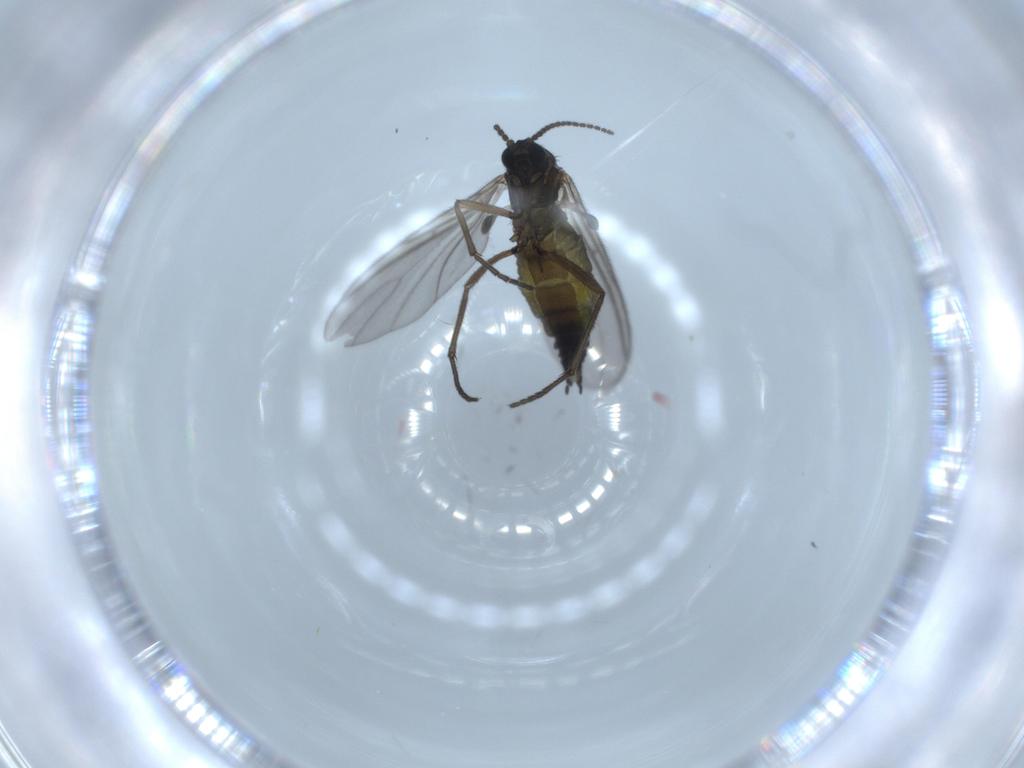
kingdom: Animalia
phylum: Arthropoda
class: Insecta
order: Diptera
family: Sciaridae
